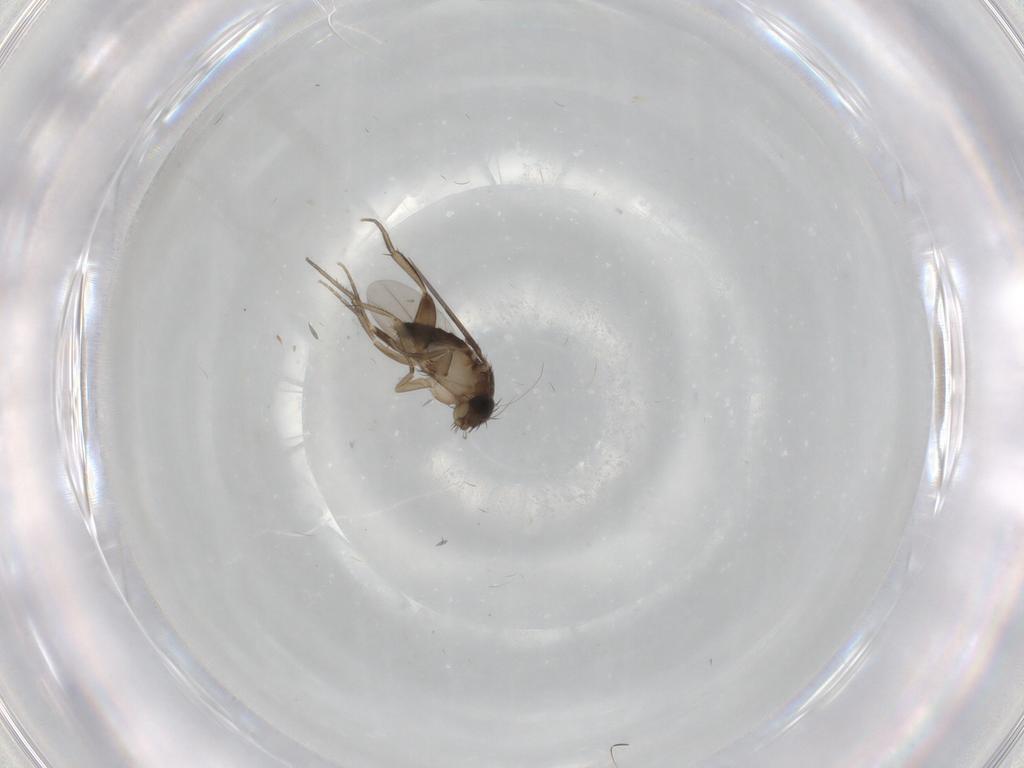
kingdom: Animalia
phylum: Arthropoda
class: Insecta
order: Diptera
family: Phoridae
